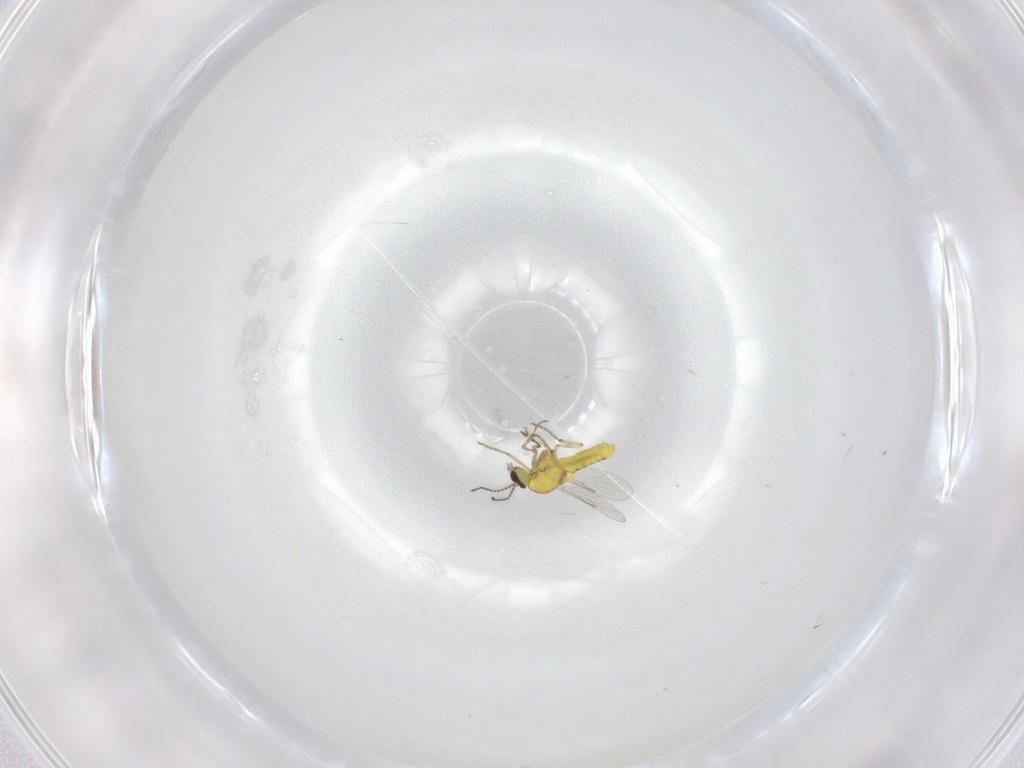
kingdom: Animalia
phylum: Arthropoda
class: Insecta
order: Diptera
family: Ceratopogonidae
